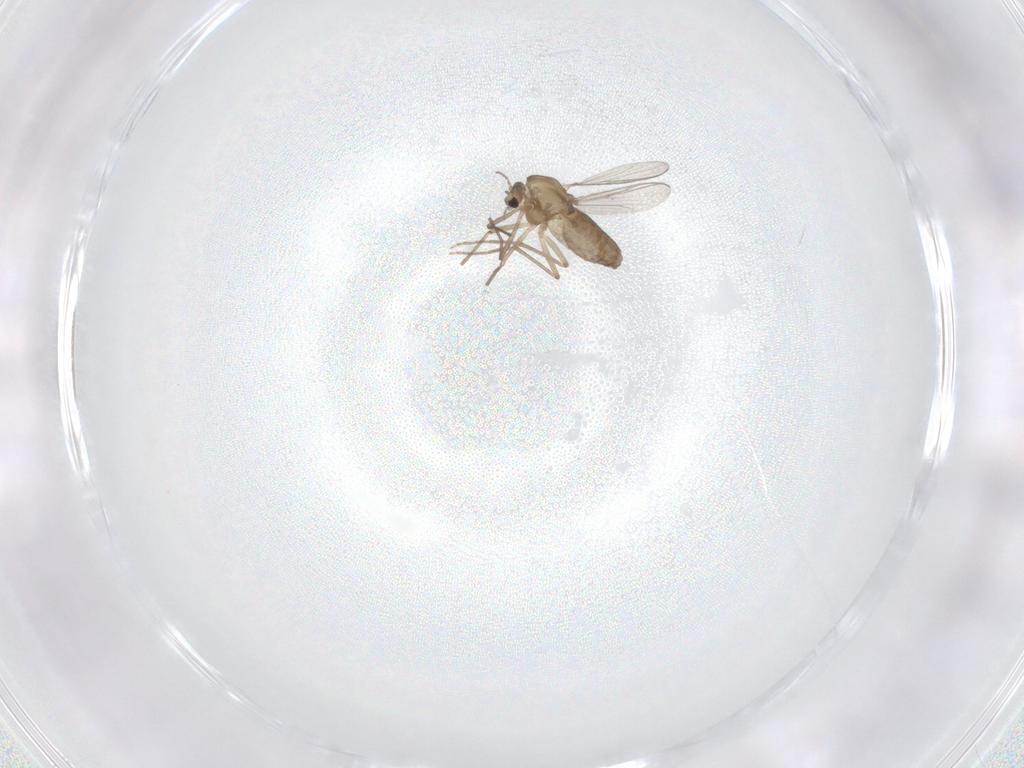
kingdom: Animalia
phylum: Arthropoda
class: Insecta
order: Diptera
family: Chironomidae
